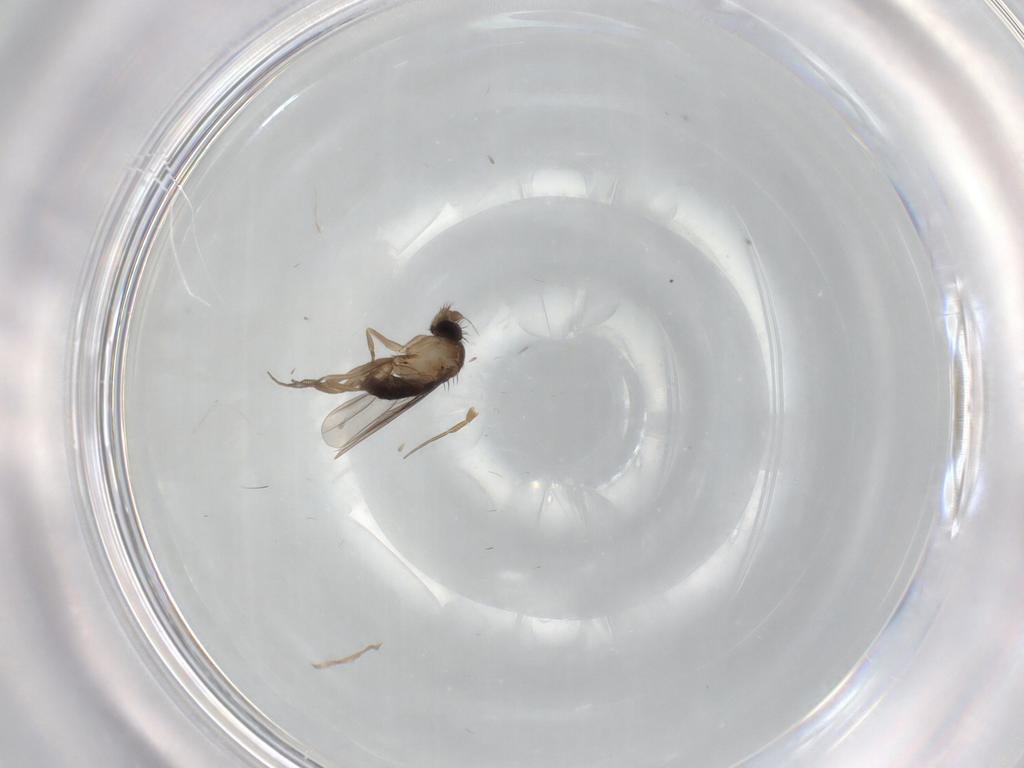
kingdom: Animalia
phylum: Arthropoda
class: Insecta
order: Diptera
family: Phoridae
